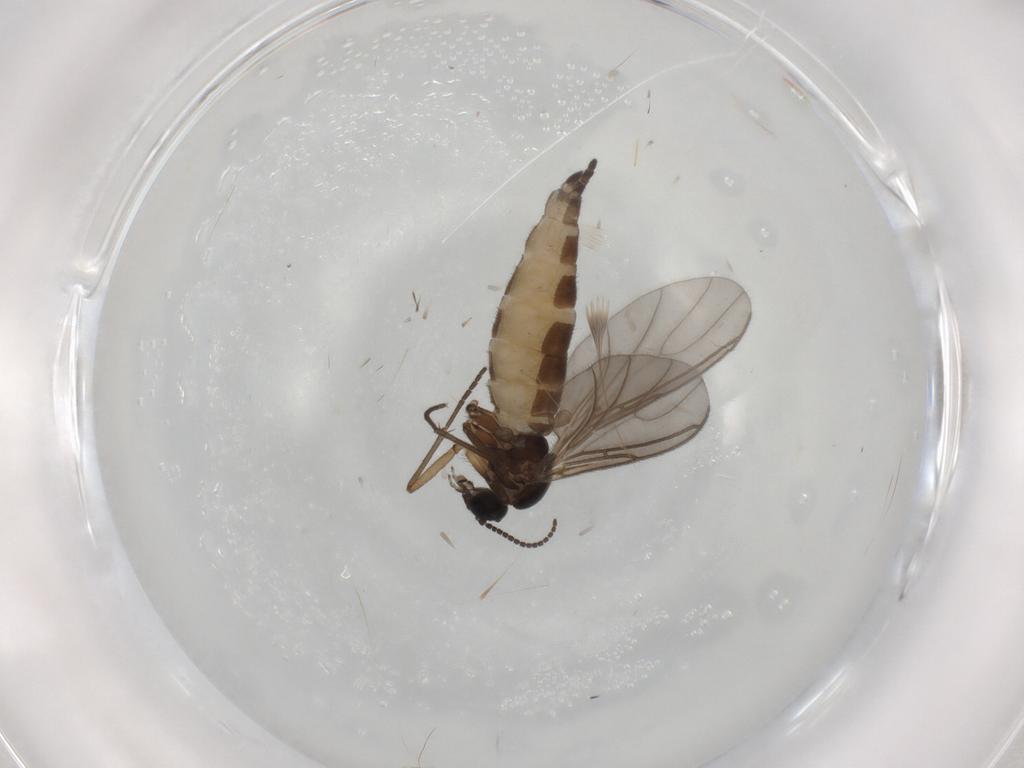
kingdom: Animalia
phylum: Arthropoda
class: Insecta
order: Diptera
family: Sciaridae
